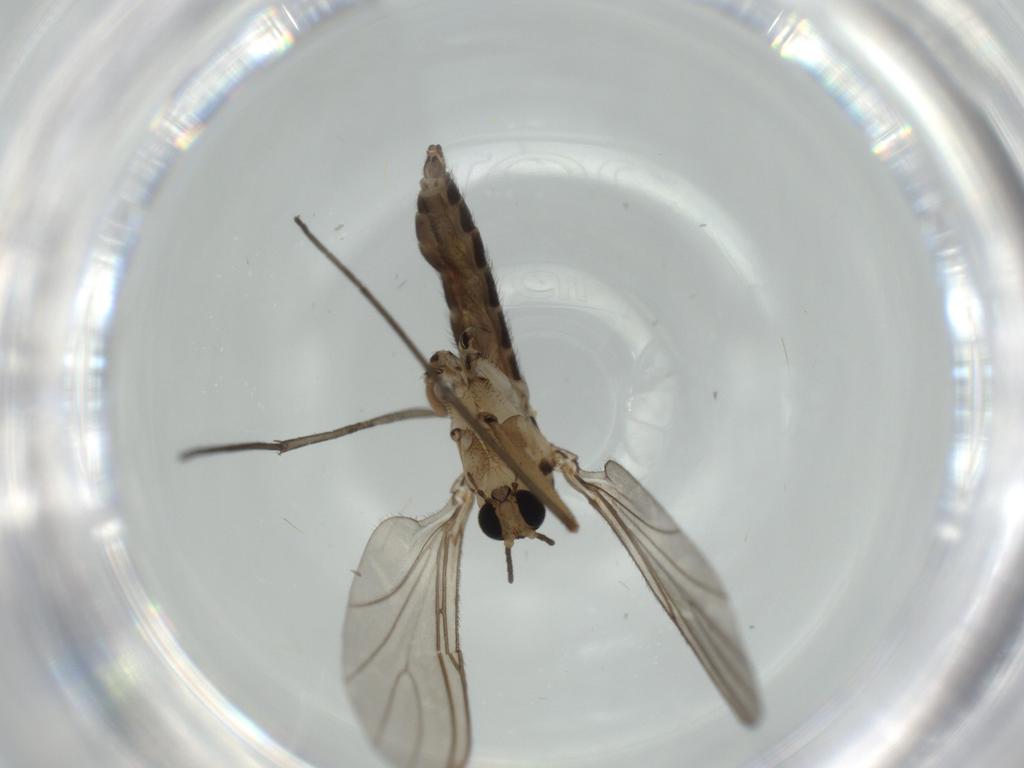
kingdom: Animalia
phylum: Arthropoda
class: Insecta
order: Diptera
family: Sciaridae
